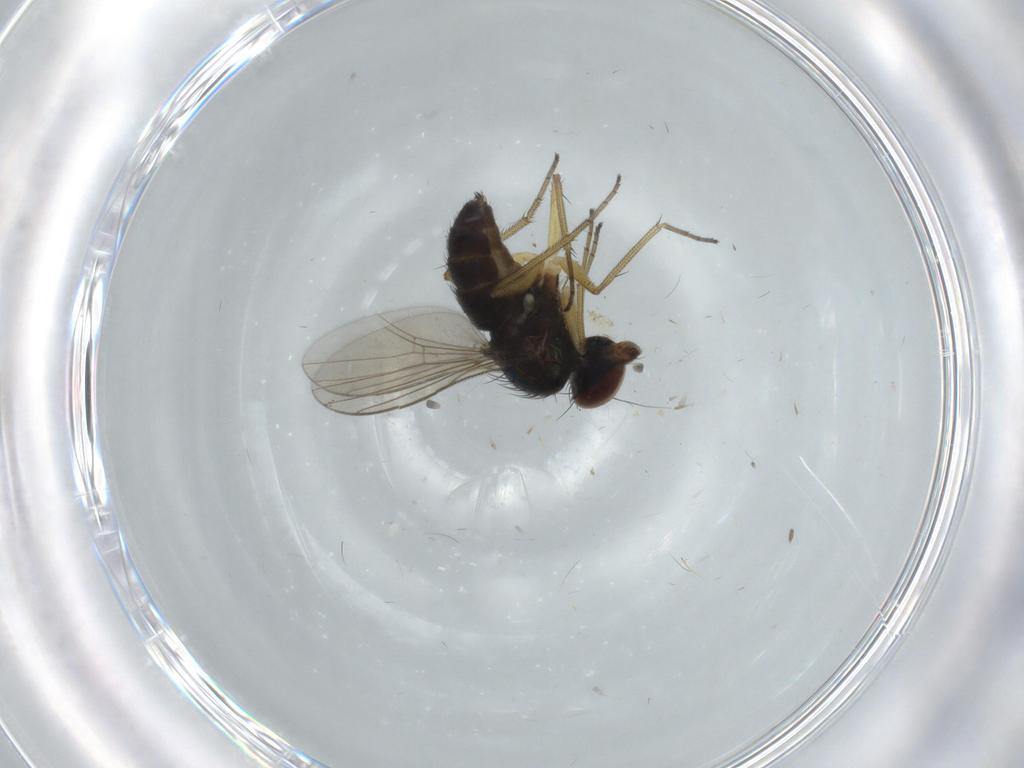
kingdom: Animalia
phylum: Arthropoda
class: Insecta
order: Diptera
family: Dolichopodidae
